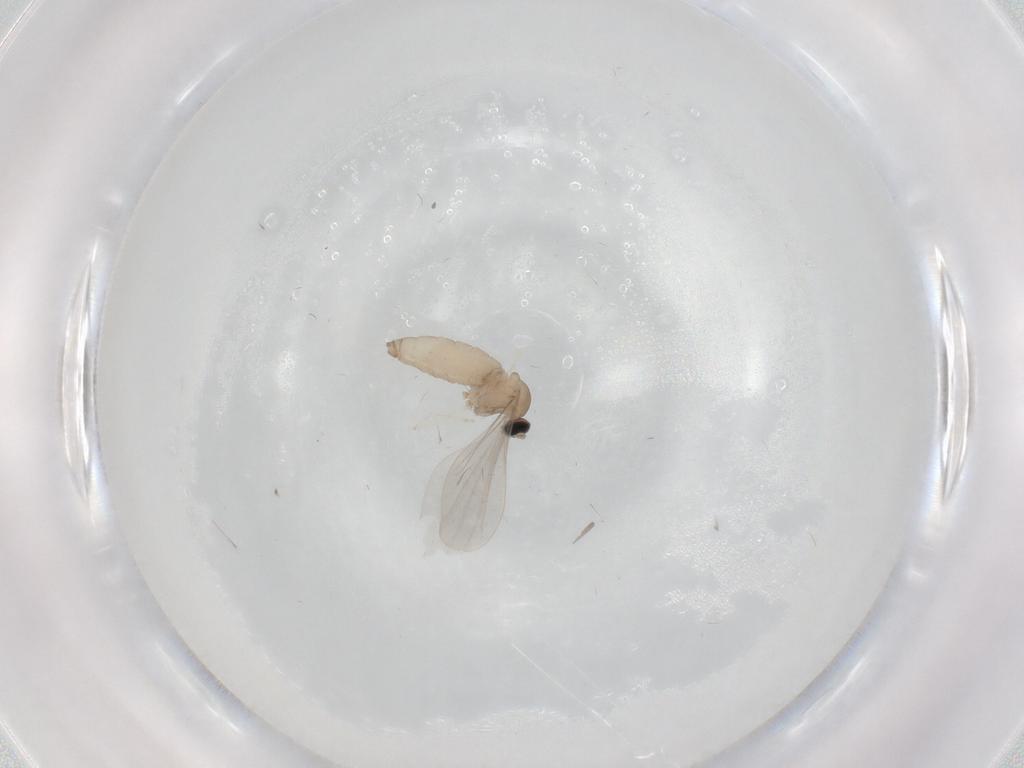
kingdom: Animalia
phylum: Arthropoda
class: Insecta
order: Diptera
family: Cecidomyiidae
